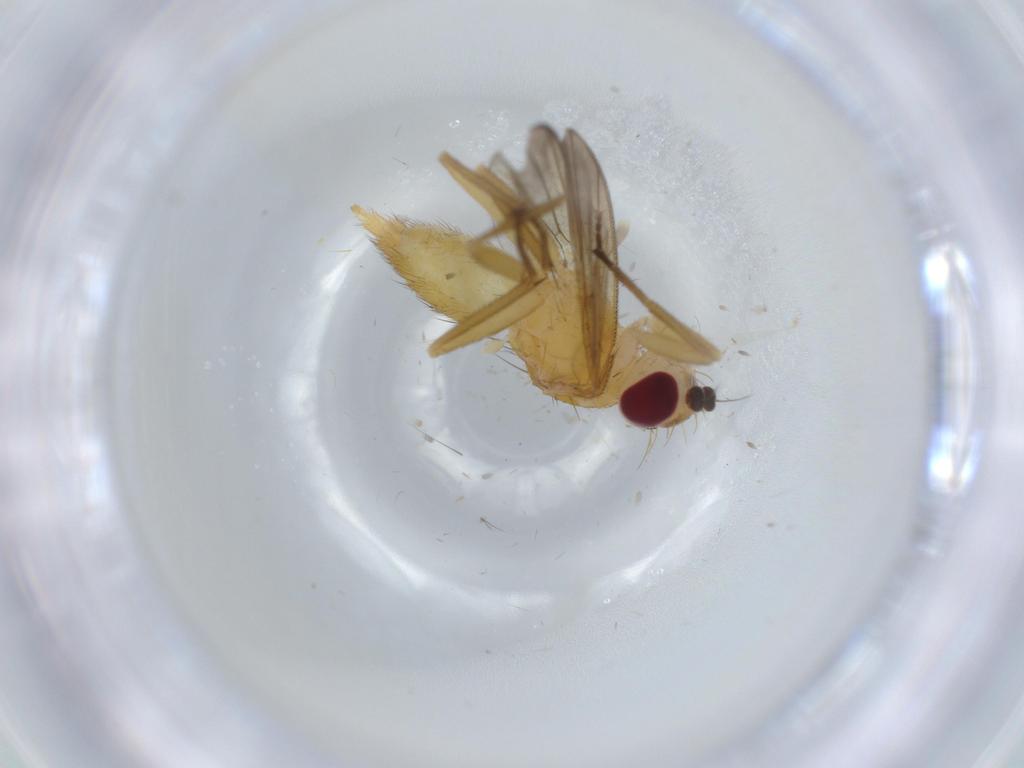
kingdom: Animalia
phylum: Arthropoda
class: Insecta
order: Diptera
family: Clusiidae
